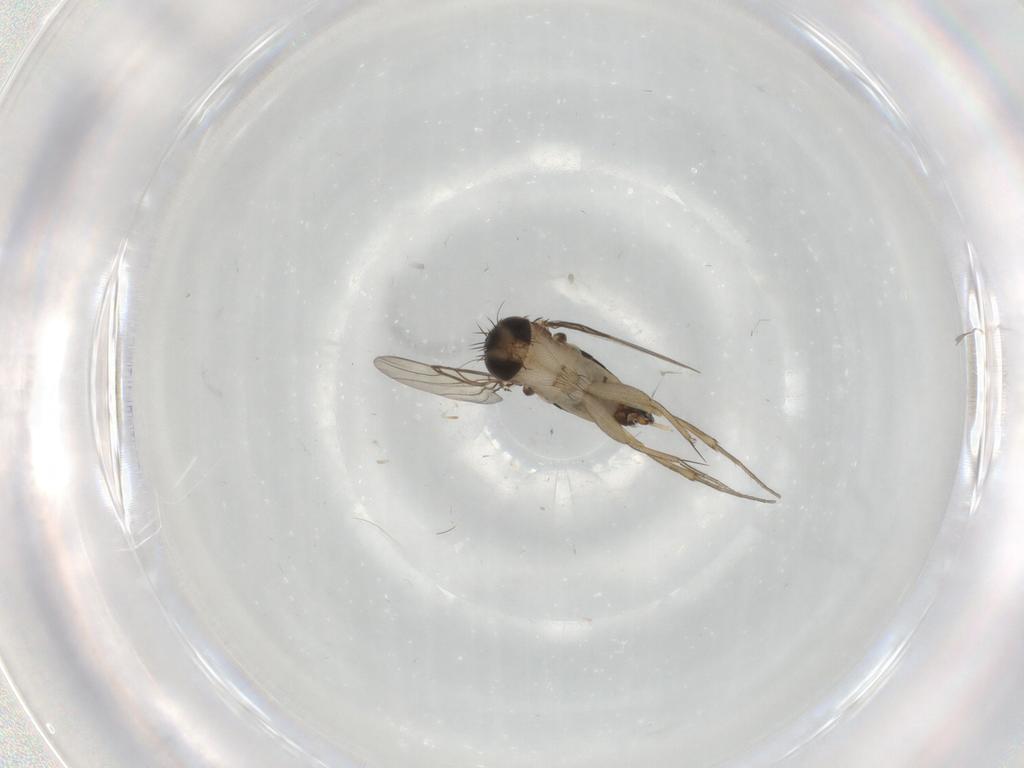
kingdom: Animalia
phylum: Arthropoda
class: Insecta
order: Diptera
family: Phoridae
